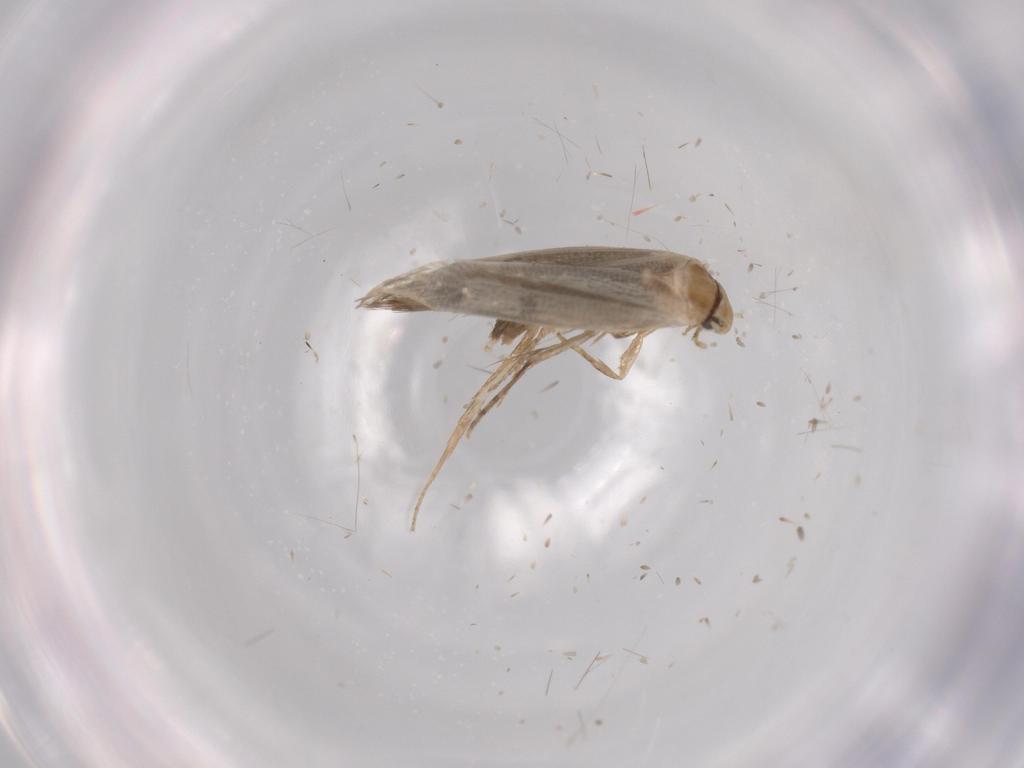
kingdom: Animalia
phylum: Arthropoda
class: Insecta
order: Lepidoptera
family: Tineidae
